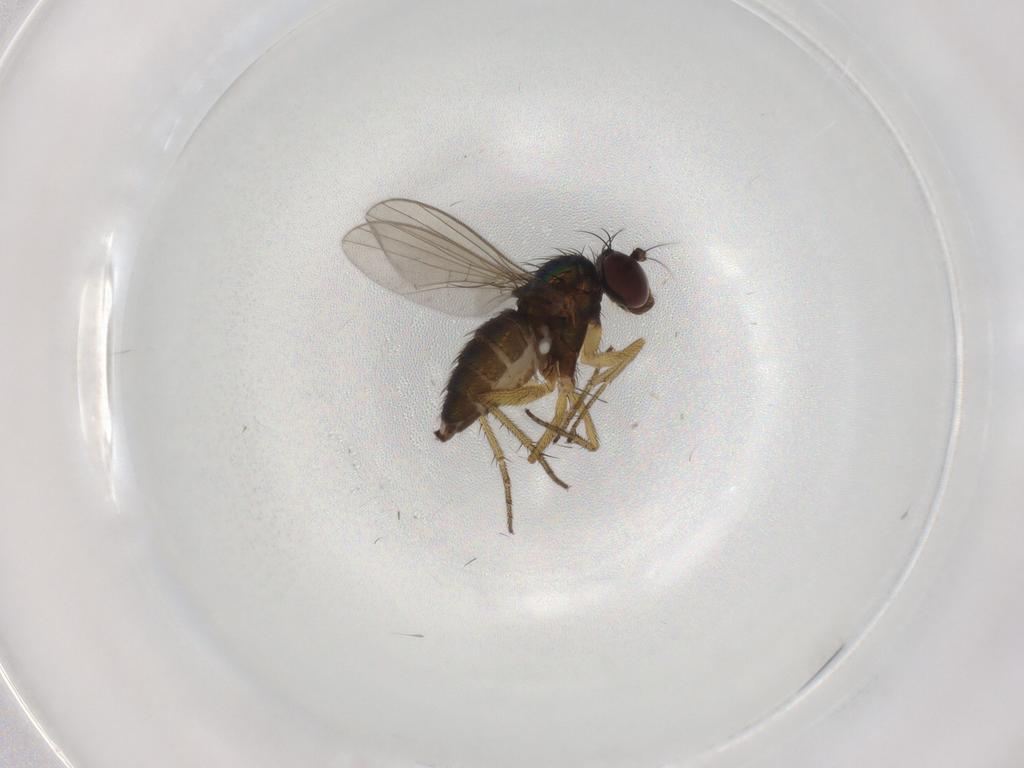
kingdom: Animalia
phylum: Arthropoda
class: Insecta
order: Diptera
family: Dolichopodidae
